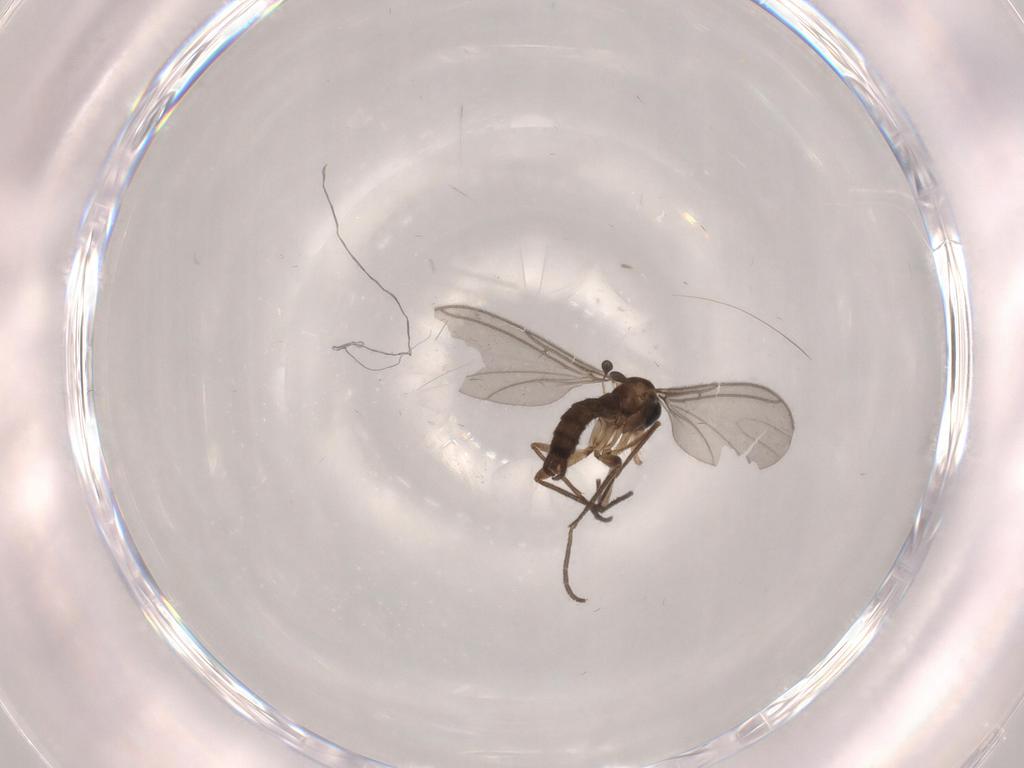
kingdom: Animalia
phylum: Arthropoda
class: Insecta
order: Diptera
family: Sciaridae
